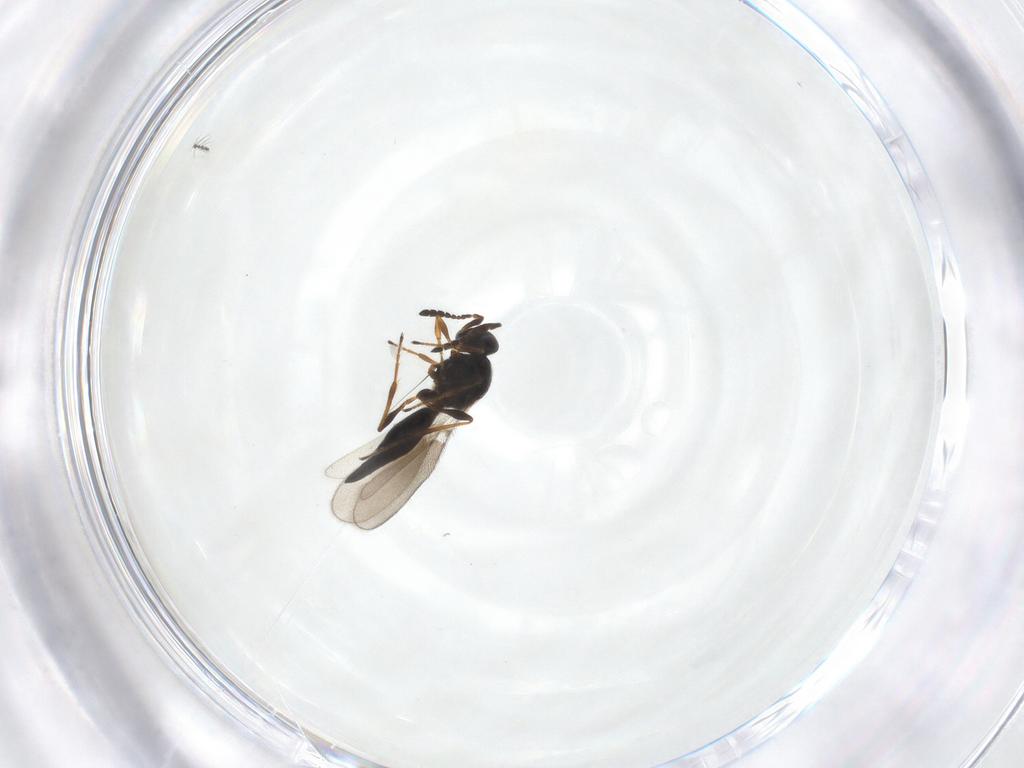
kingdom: Animalia
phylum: Arthropoda
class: Insecta
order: Hymenoptera
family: Platygastridae
